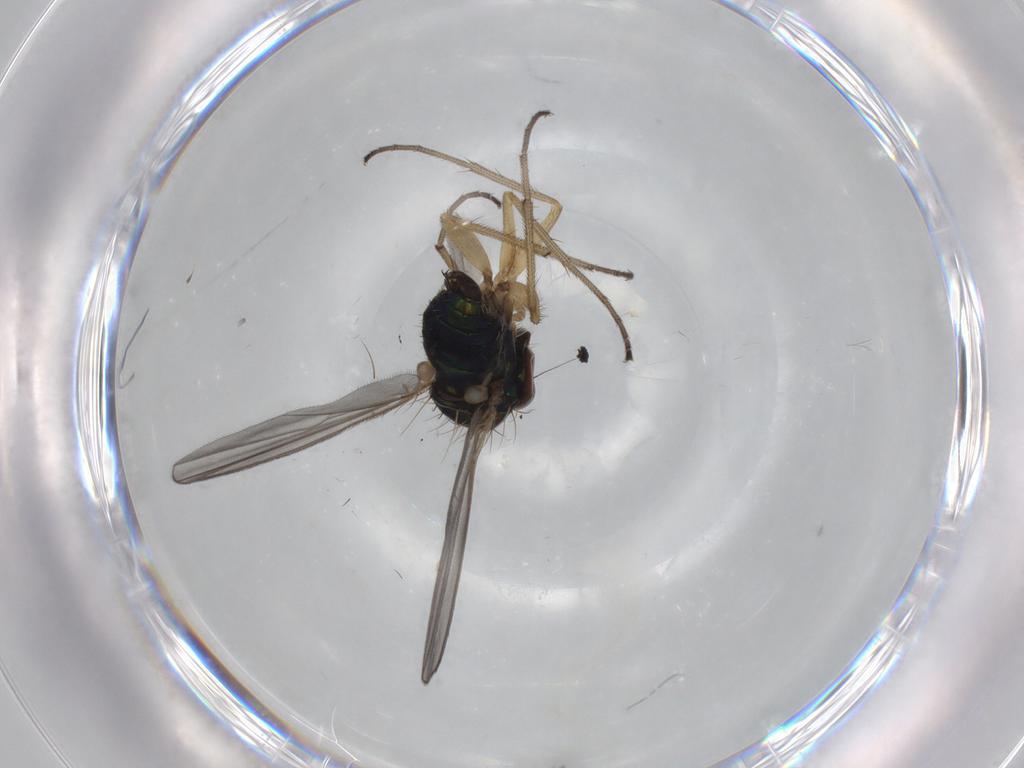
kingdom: Animalia
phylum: Arthropoda
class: Insecta
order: Diptera
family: Dolichopodidae
